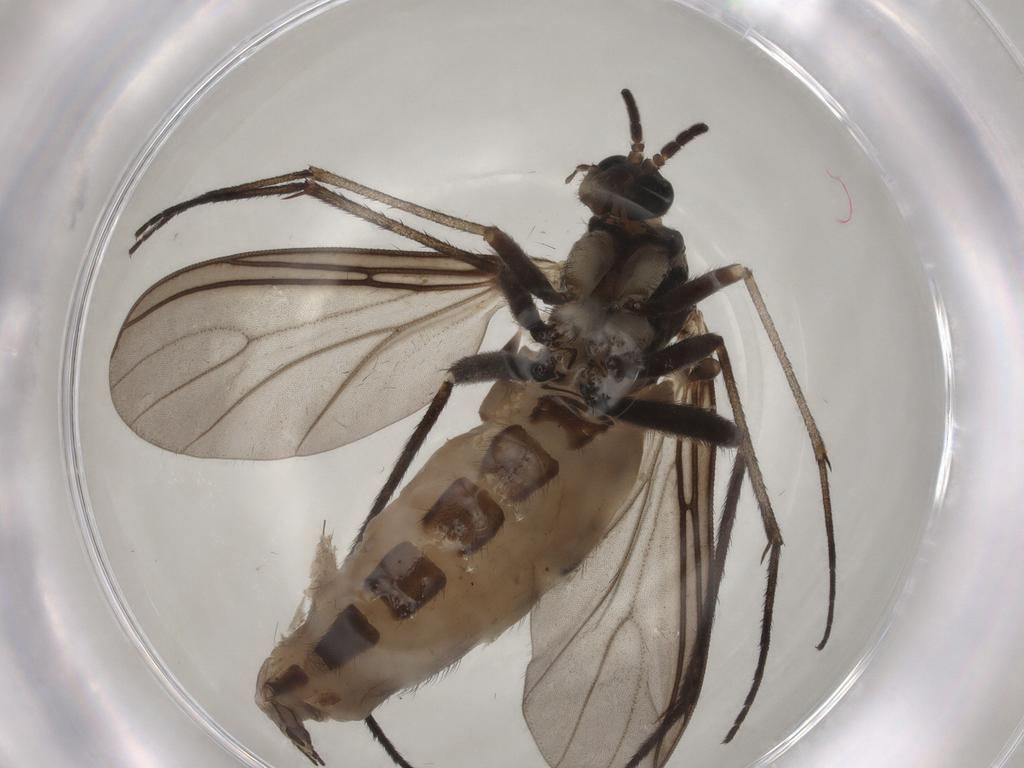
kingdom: Animalia
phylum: Arthropoda
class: Insecta
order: Diptera
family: Sciaridae
